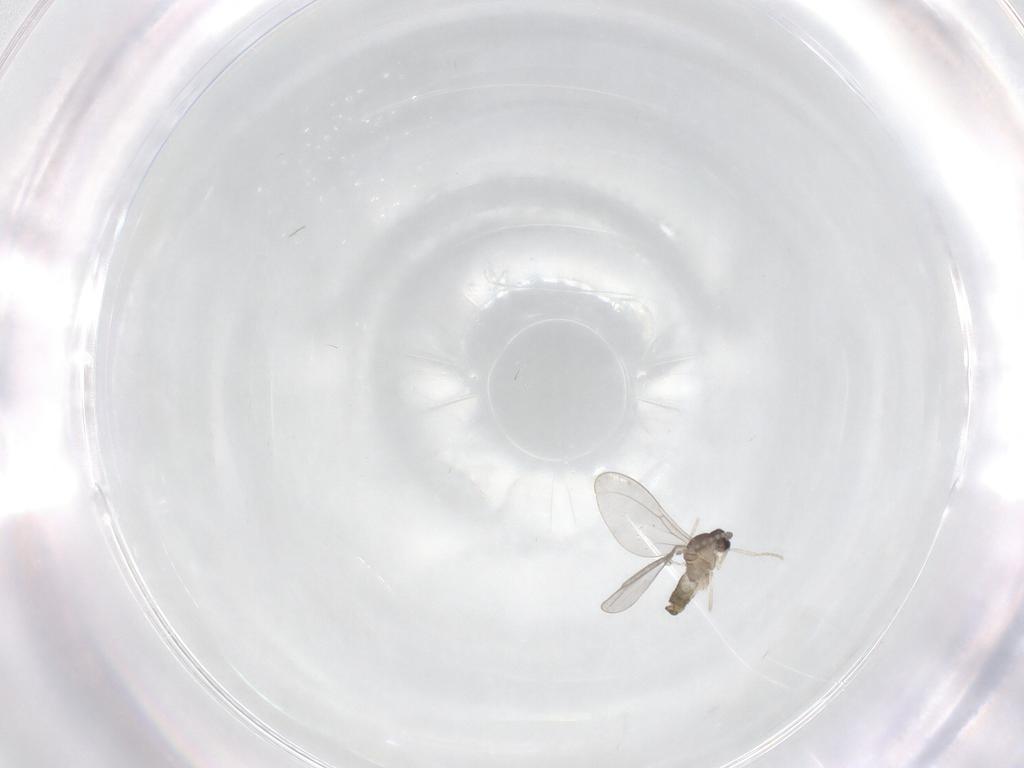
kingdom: Animalia
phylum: Arthropoda
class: Insecta
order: Diptera
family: Cecidomyiidae
